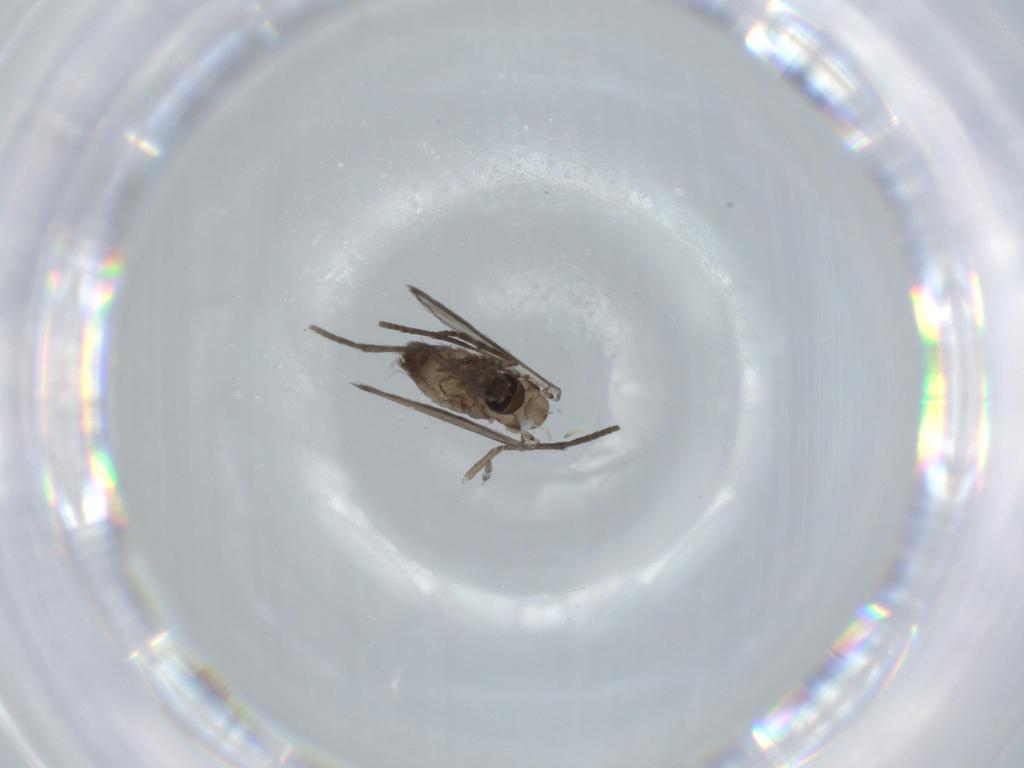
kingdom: Animalia
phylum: Arthropoda
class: Insecta
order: Diptera
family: Psychodidae
